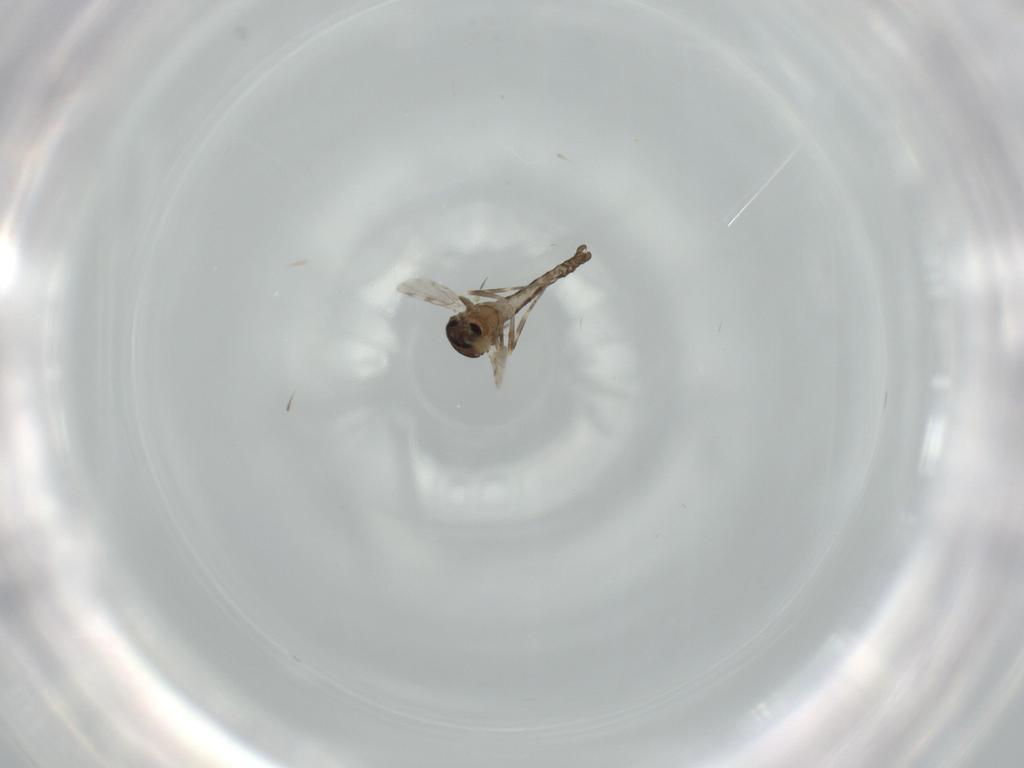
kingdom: Animalia
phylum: Arthropoda
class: Insecta
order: Diptera
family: Ceratopogonidae
